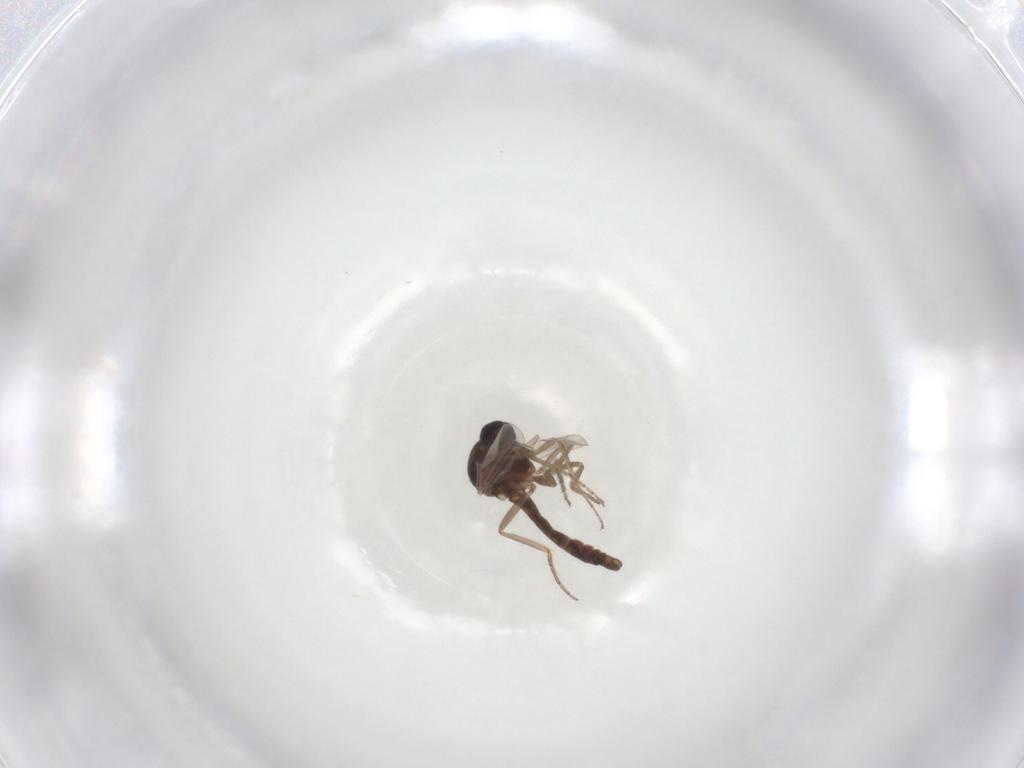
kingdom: Animalia
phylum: Arthropoda
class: Insecta
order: Diptera
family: Ceratopogonidae
